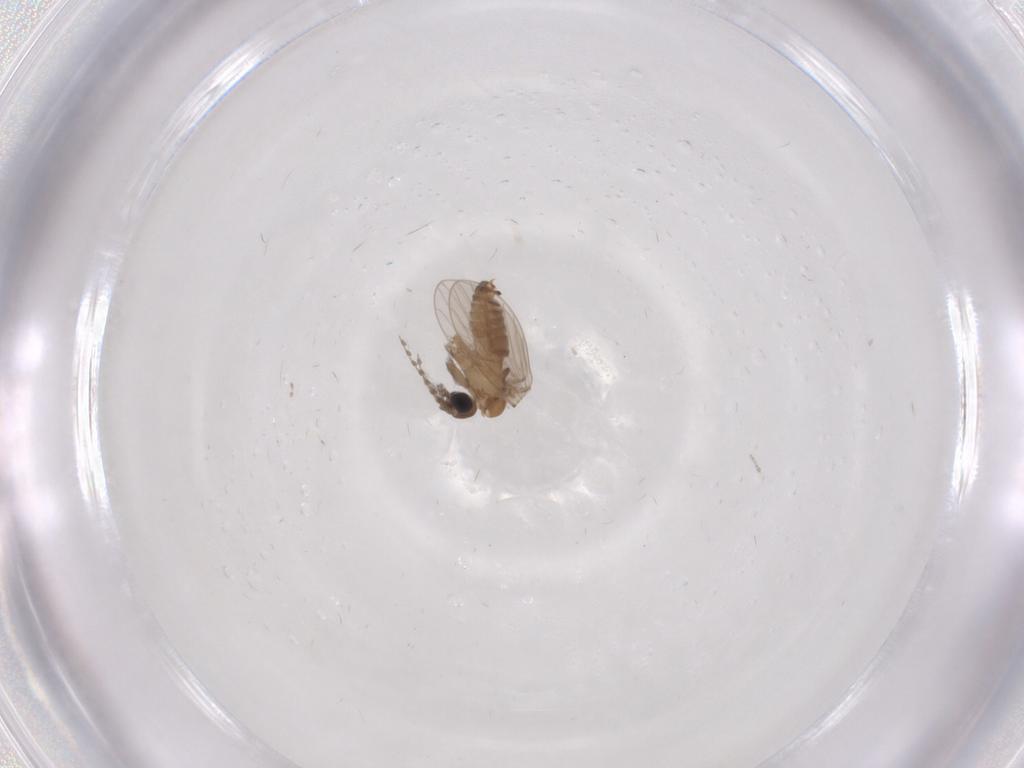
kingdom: Animalia
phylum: Arthropoda
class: Insecta
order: Diptera
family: Psychodidae
